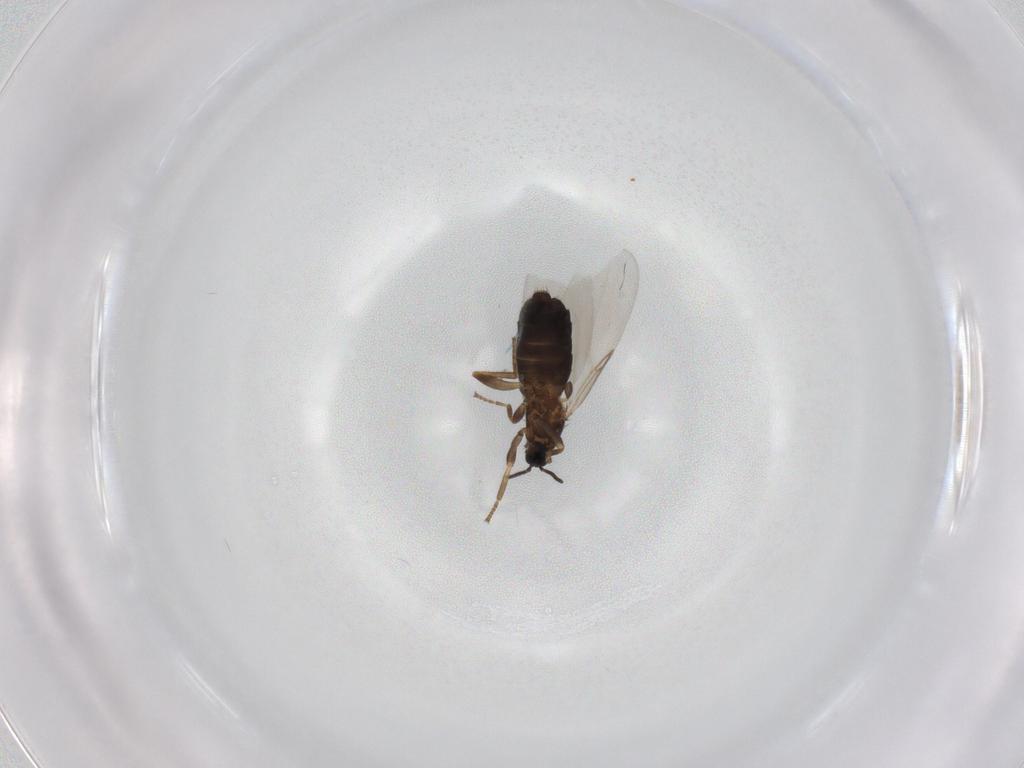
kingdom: Animalia
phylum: Arthropoda
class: Insecta
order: Diptera
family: Scatopsidae
